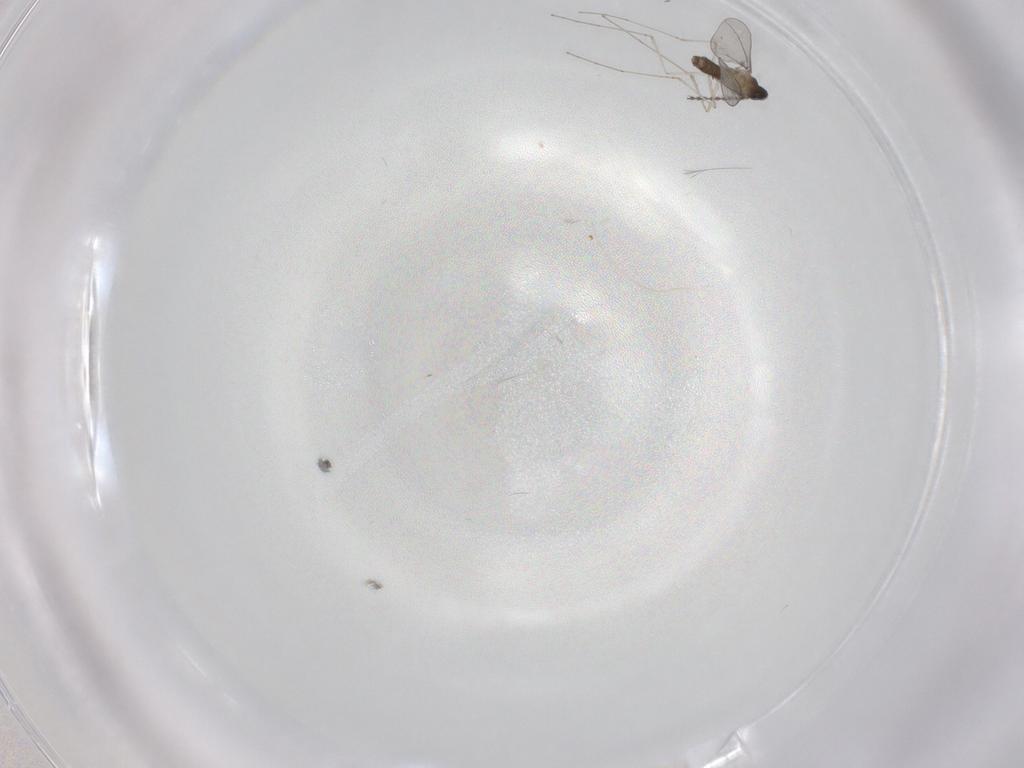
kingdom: Animalia
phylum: Arthropoda
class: Insecta
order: Diptera
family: Cecidomyiidae
